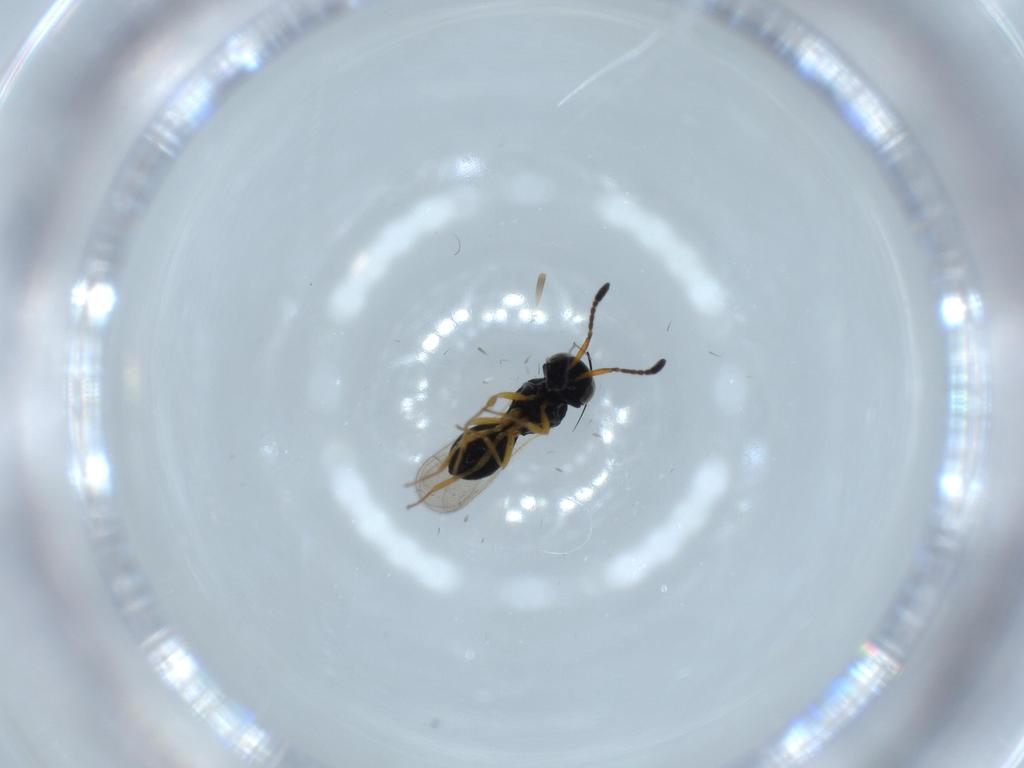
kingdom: Animalia
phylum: Arthropoda
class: Insecta
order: Hymenoptera
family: Scelionidae
